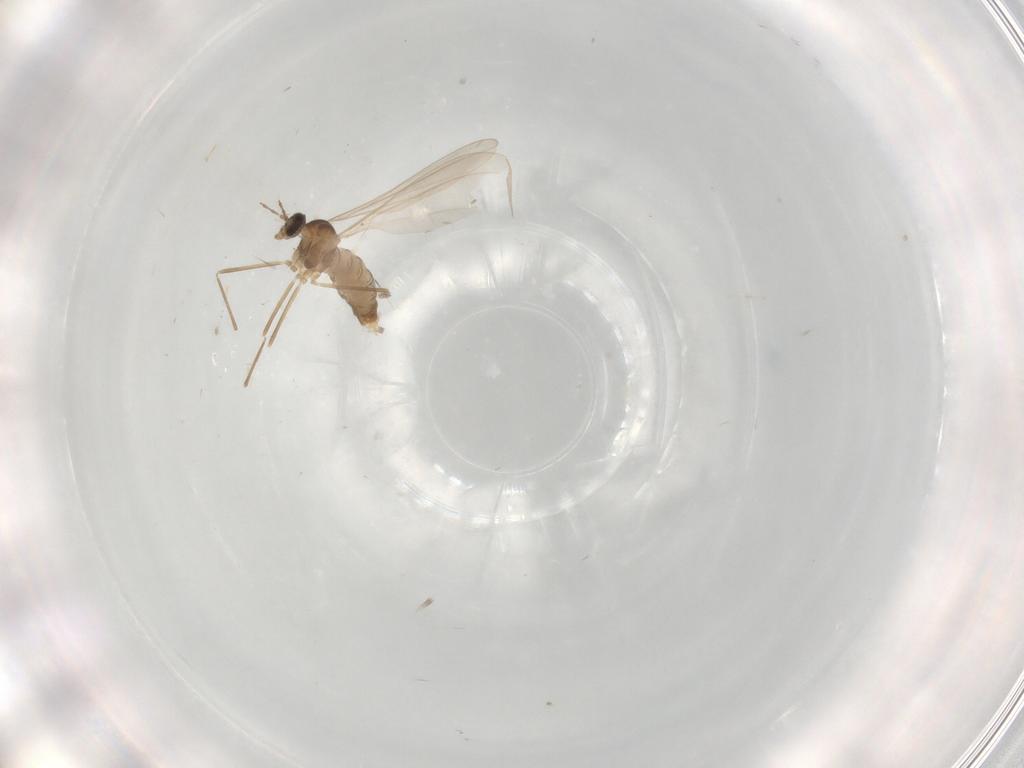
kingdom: Animalia
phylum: Arthropoda
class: Insecta
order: Diptera
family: Cecidomyiidae
